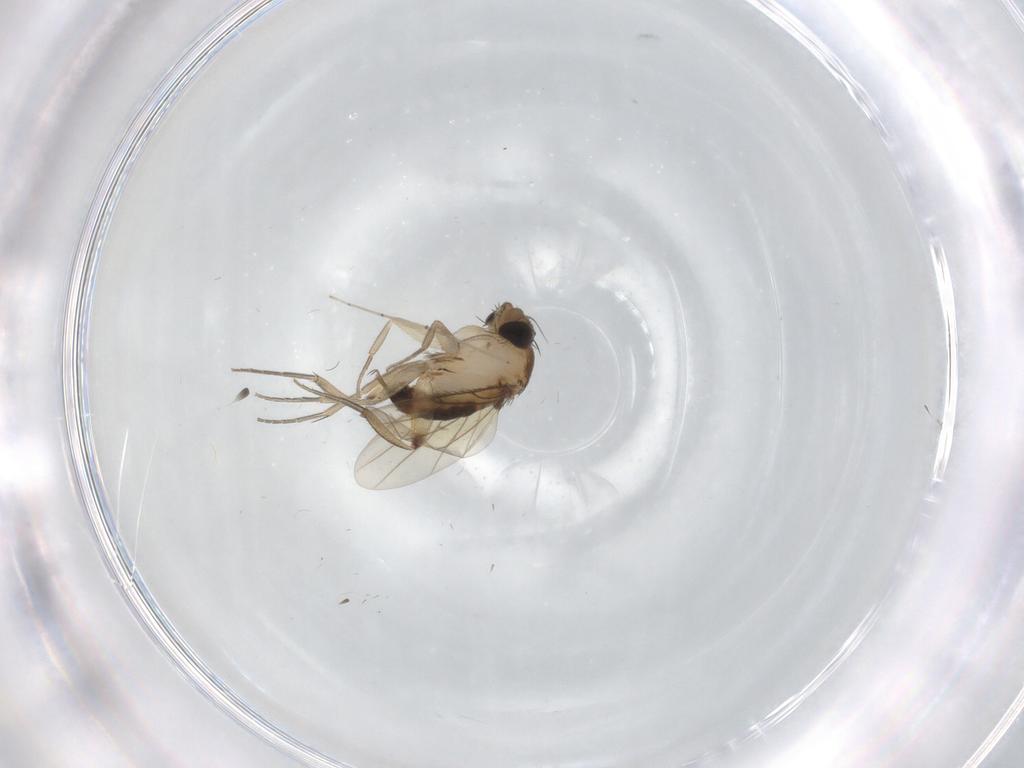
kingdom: Animalia
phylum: Arthropoda
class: Insecta
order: Diptera
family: Phoridae
